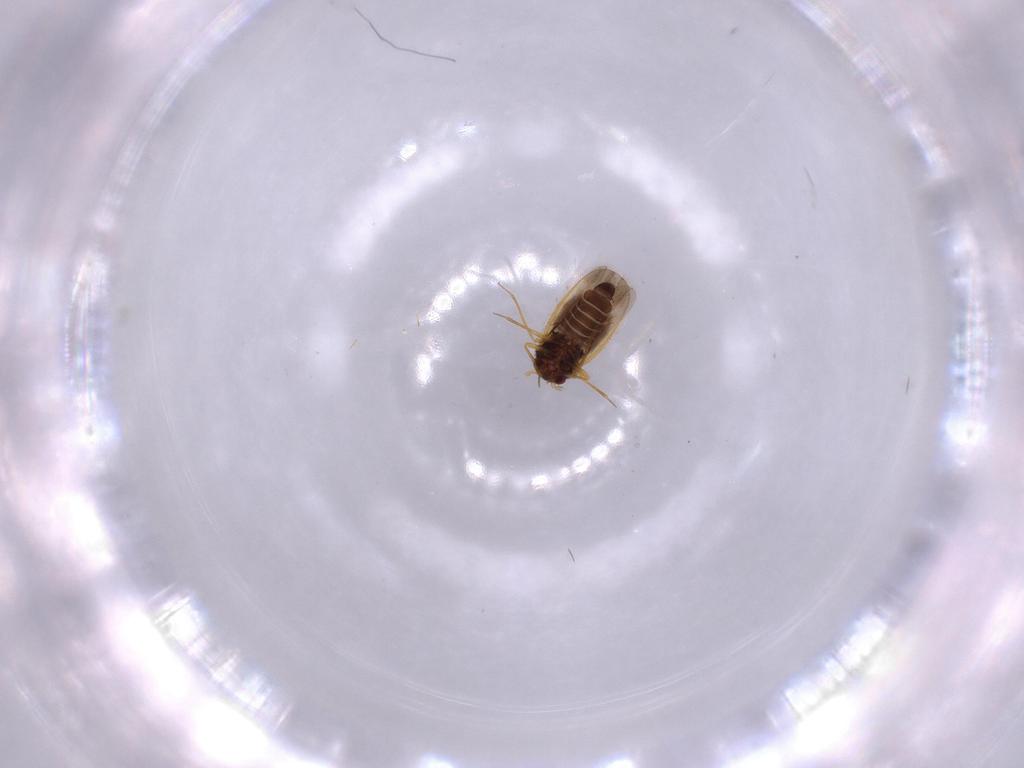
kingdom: Animalia
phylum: Arthropoda
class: Insecta
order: Hemiptera
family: Schizopteridae
